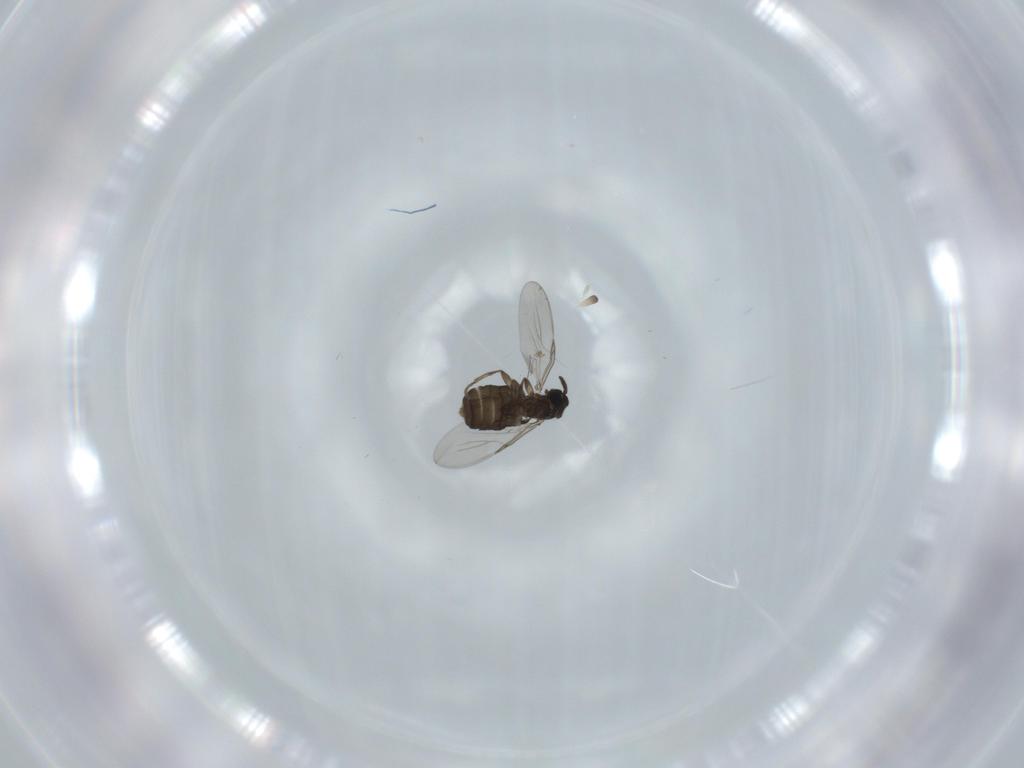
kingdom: Animalia
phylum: Arthropoda
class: Insecta
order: Diptera
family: Scatopsidae
